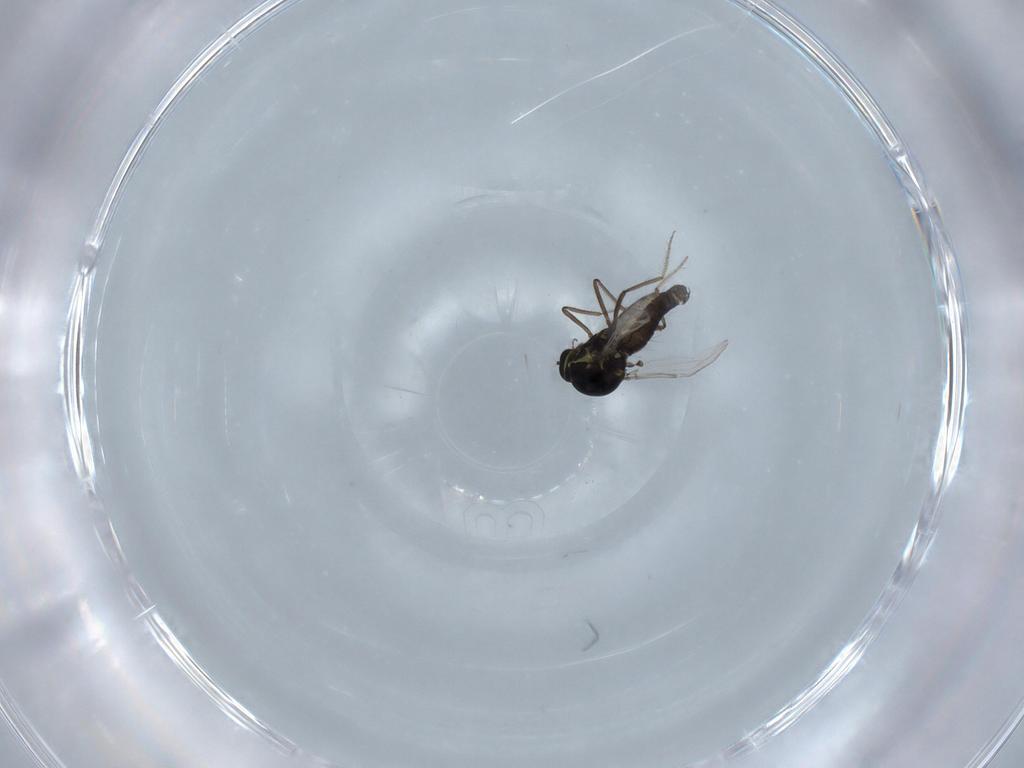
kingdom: Animalia
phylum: Arthropoda
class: Insecta
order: Diptera
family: Ceratopogonidae
